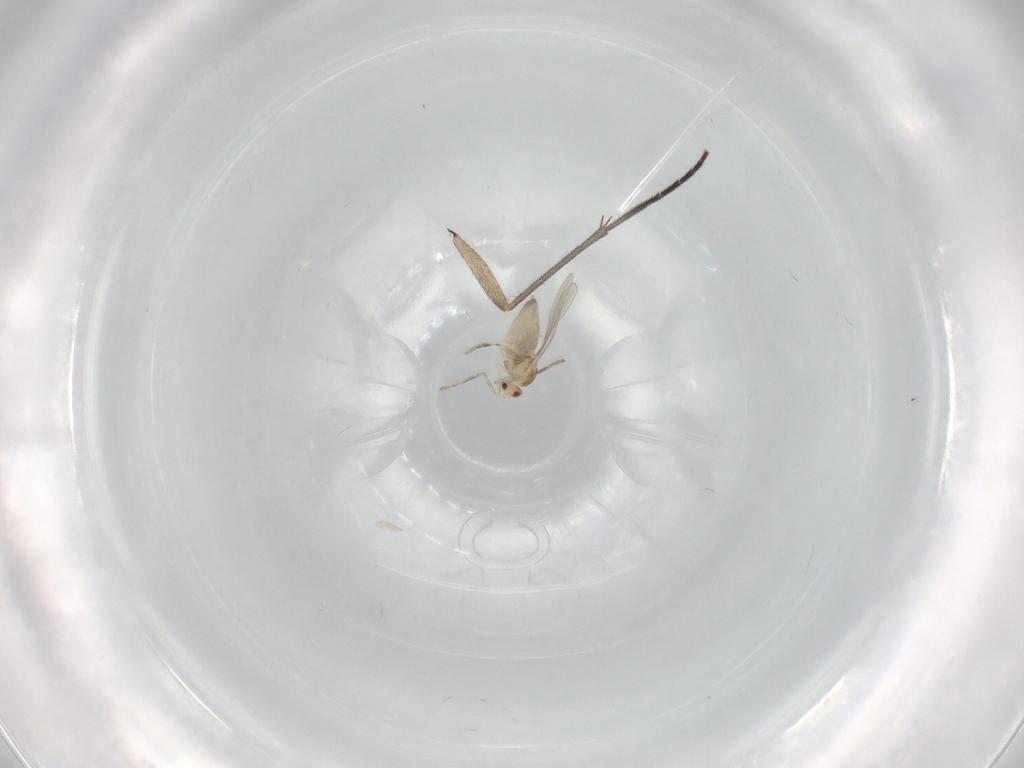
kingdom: Animalia
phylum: Arthropoda
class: Insecta
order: Diptera
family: Cecidomyiidae
